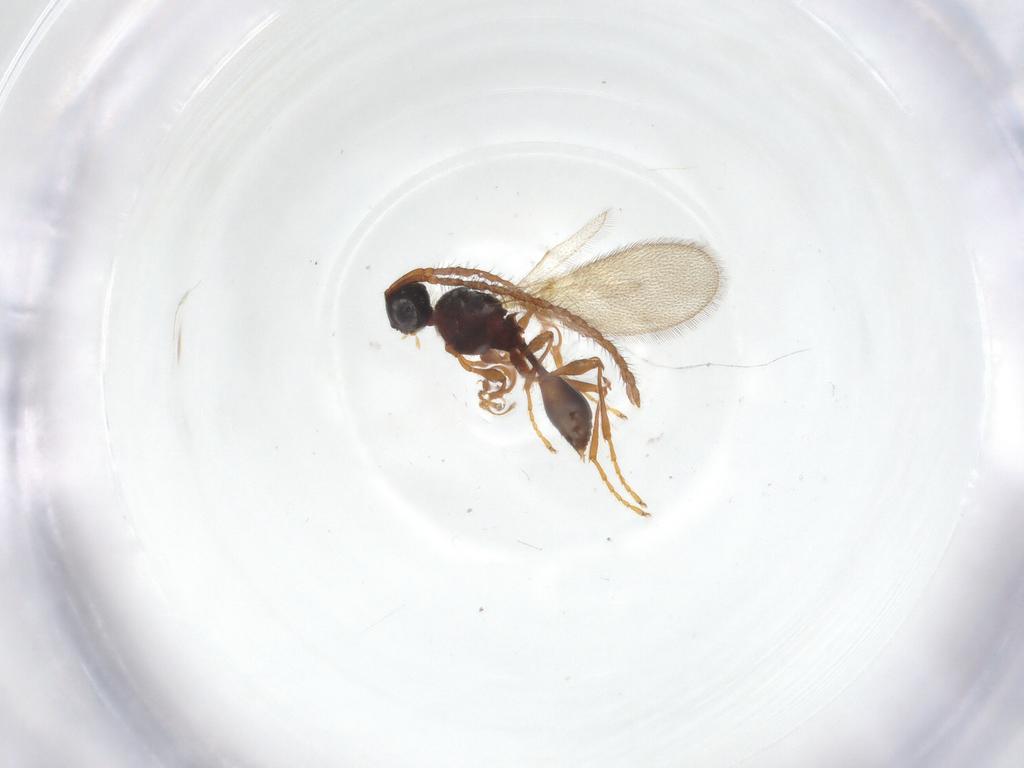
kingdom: Animalia
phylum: Arthropoda
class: Insecta
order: Hymenoptera
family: Diapriidae
